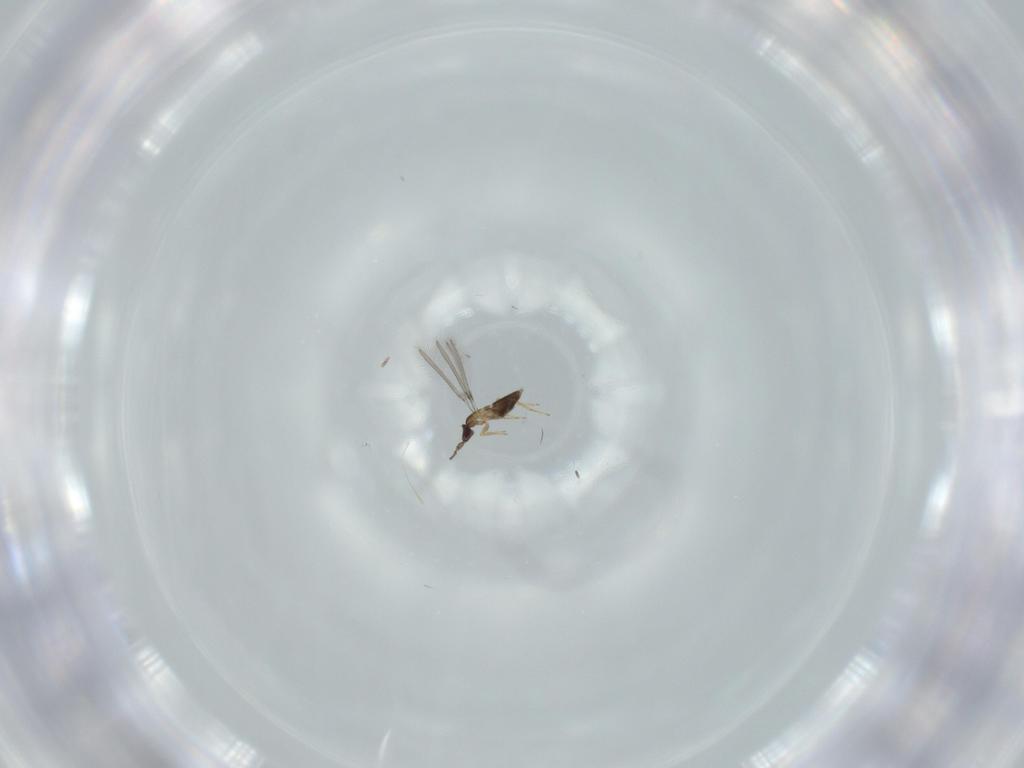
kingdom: Animalia
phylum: Arthropoda
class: Insecta
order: Hymenoptera
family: Mymaridae
